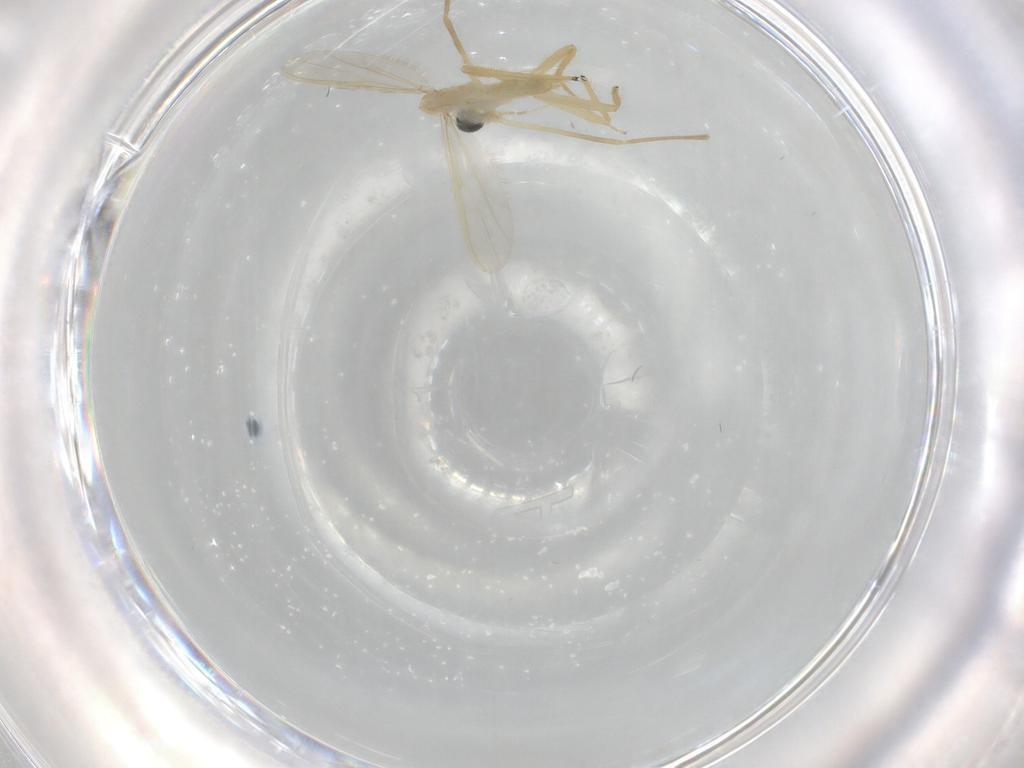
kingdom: Animalia
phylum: Arthropoda
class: Insecta
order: Diptera
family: Chironomidae
